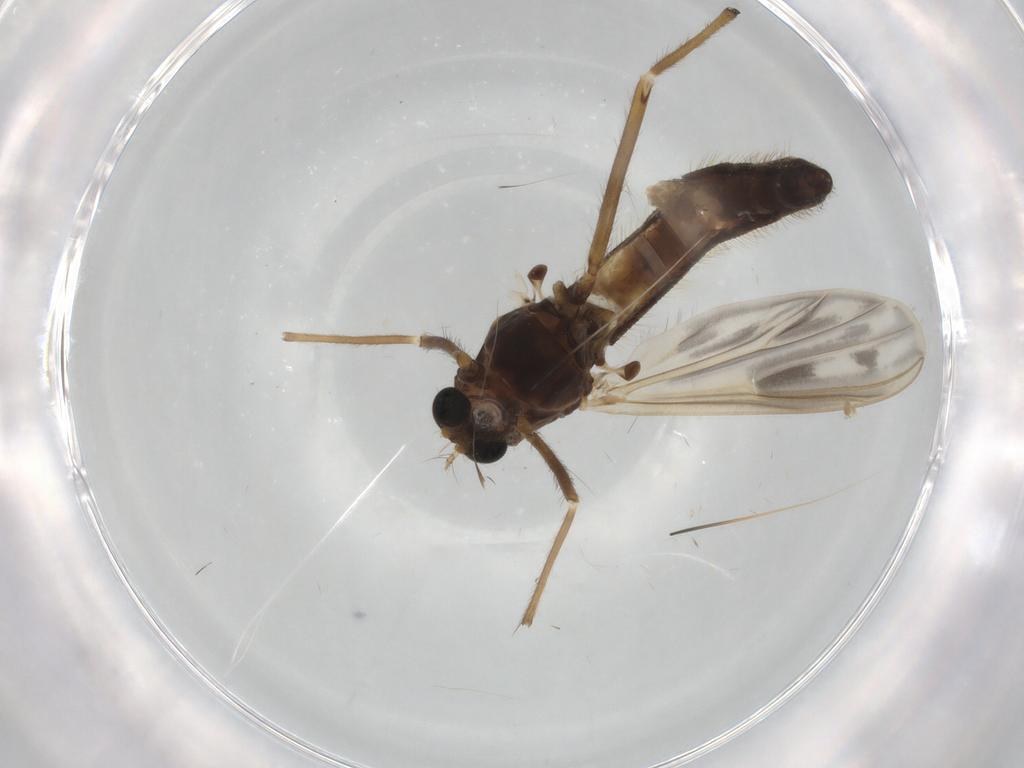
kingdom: Animalia
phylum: Arthropoda
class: Insecta
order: Diptera
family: Chironomidae
